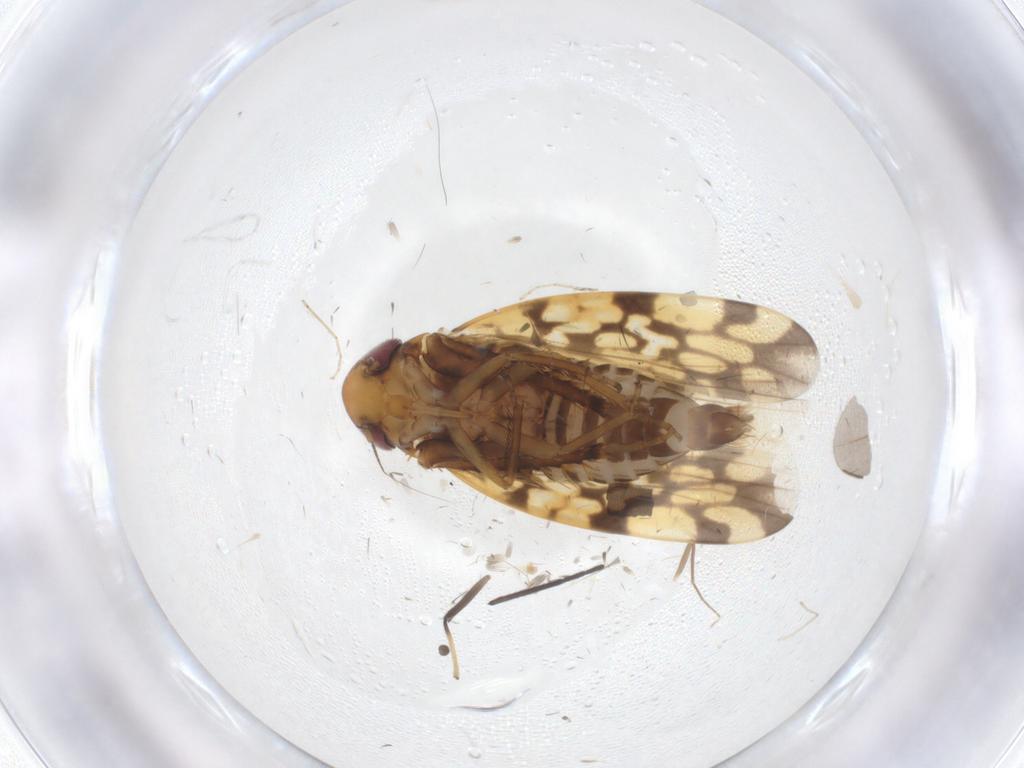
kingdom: Animalia
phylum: Arthropoda
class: Insecta
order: Hemiptera
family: Cicadellidae
